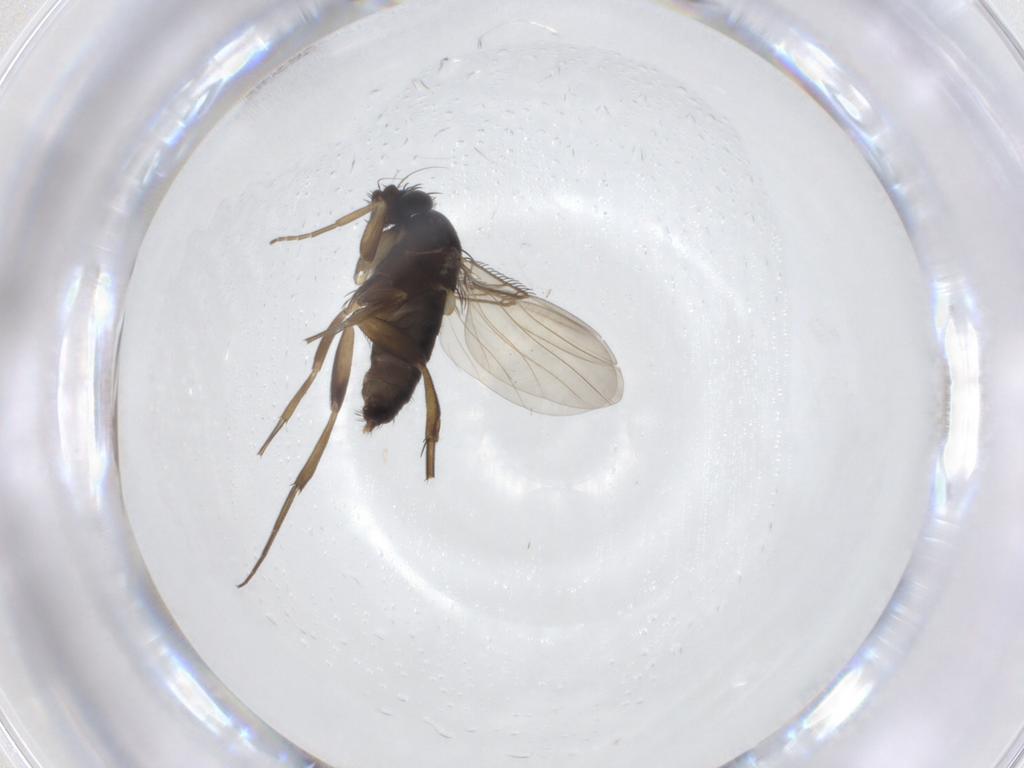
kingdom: Animalia
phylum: Arthropoda
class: Insecta
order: Diptera
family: Phoridae
